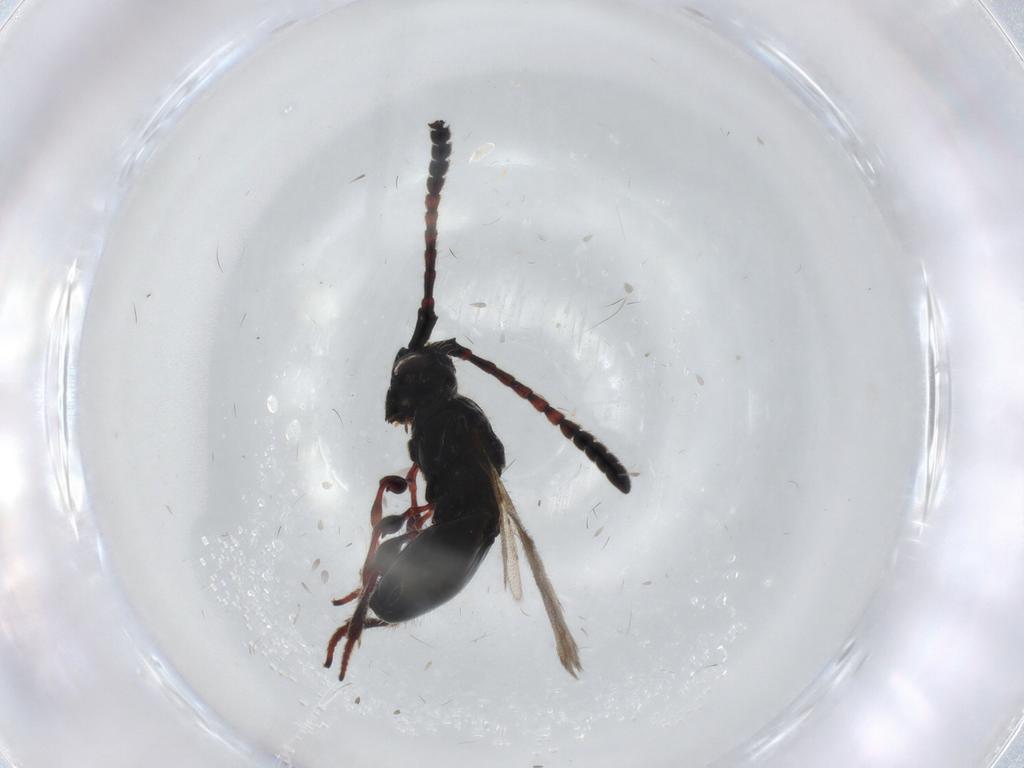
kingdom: Animalia
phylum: Arthropoda
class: Insecta
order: Hymenoptera
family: Diapriidae
